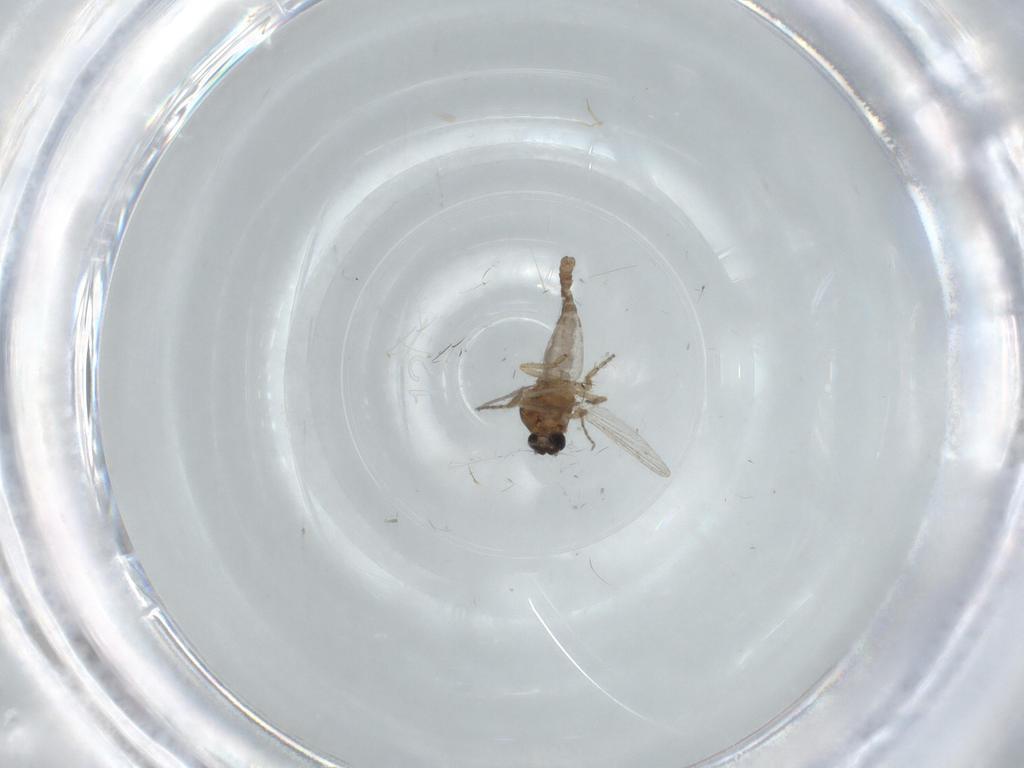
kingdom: Animalia
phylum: Arthropoda
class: Insecta
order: Diptera
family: Ceratopogonidae
